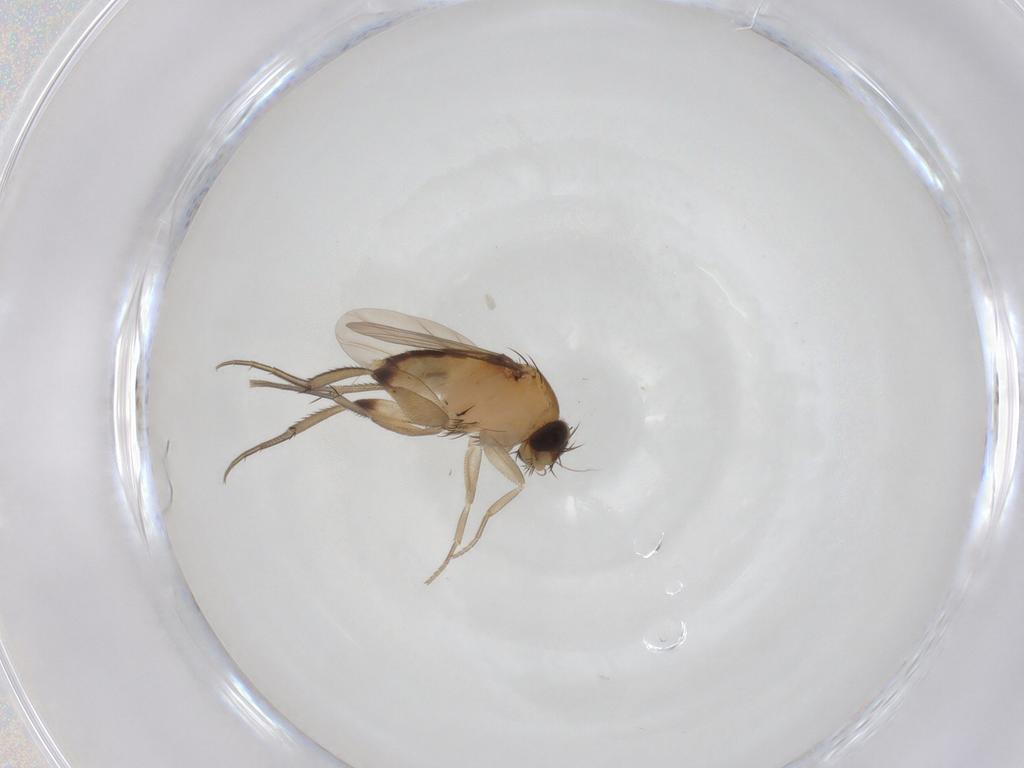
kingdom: Animalia
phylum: Arthropoda
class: Insecta
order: Diptera
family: Phoridae
